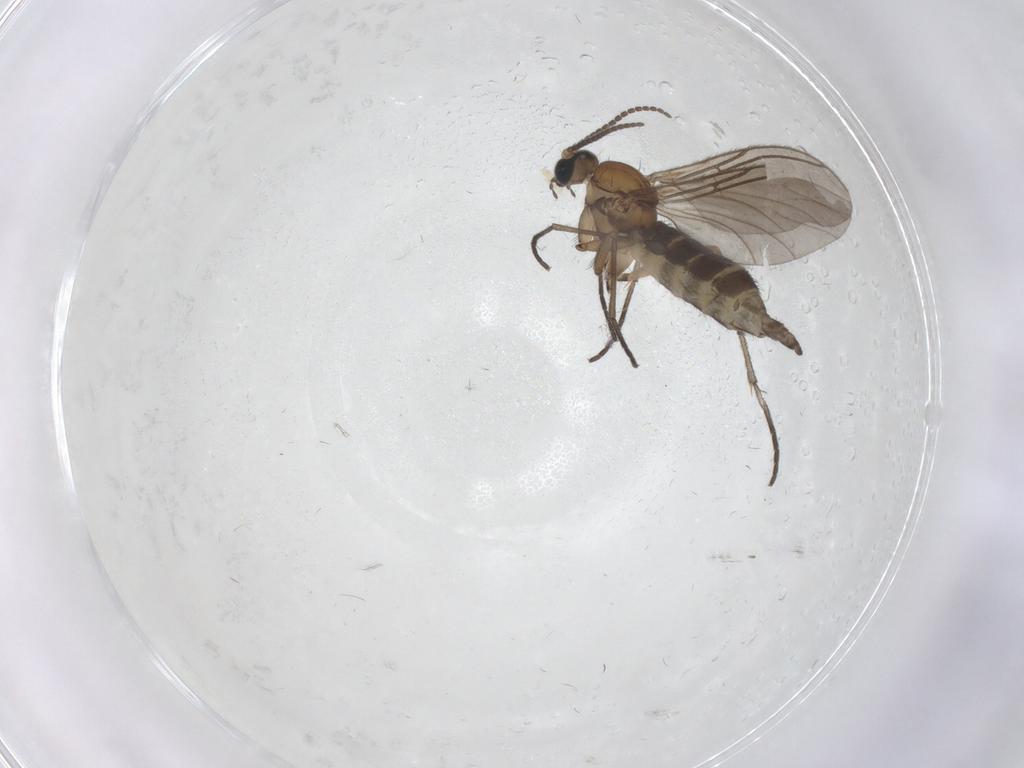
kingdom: Animalia
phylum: Arthropoda
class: Insecta
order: Diptera
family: Sciaridae
